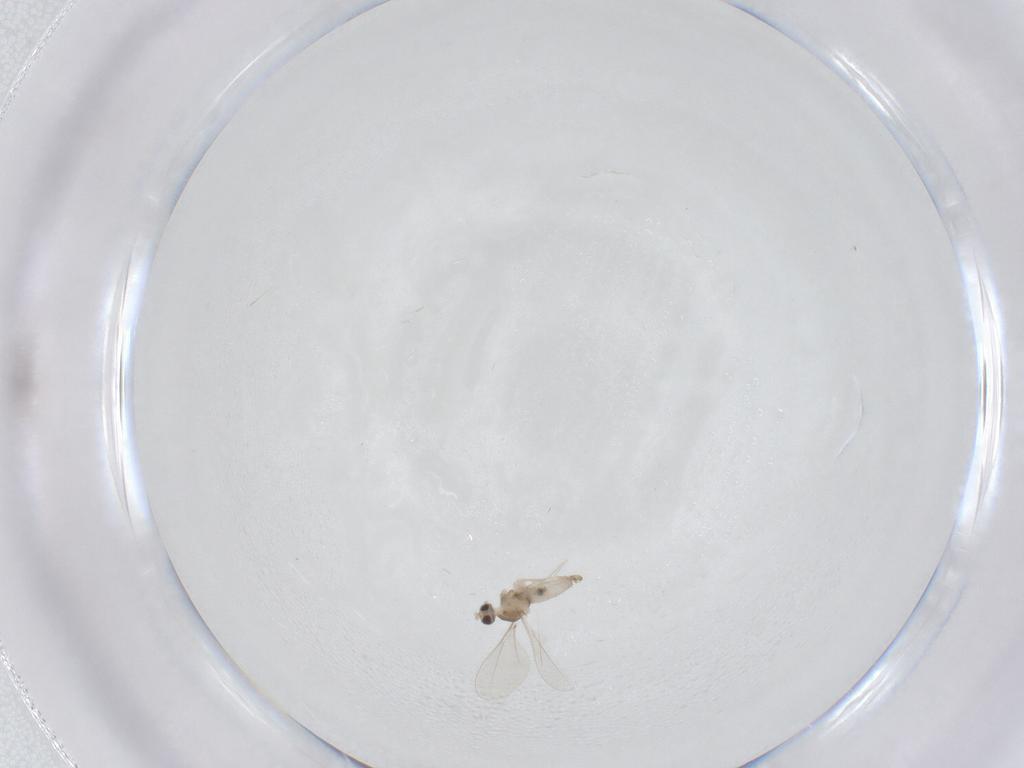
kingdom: Animalia
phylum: Arthropoda
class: Insecta
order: Diptera
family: Cecidomyiidae
